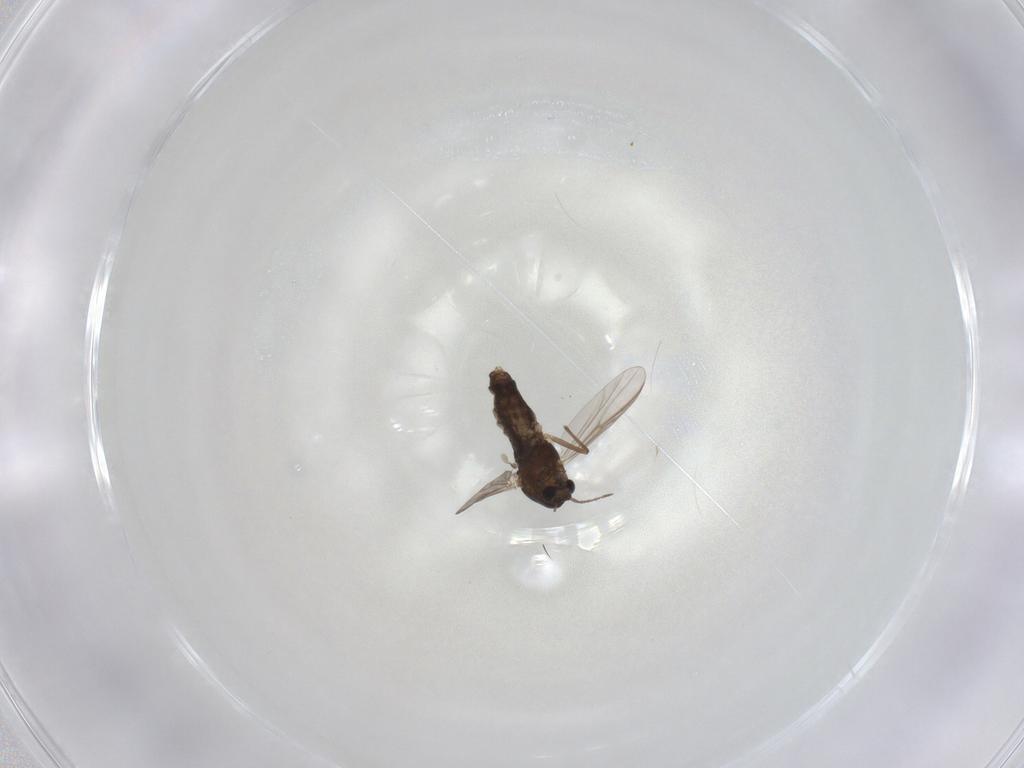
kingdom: Animalia
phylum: Arthropoda
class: Insecta
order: Diptera
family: Chironomidae
